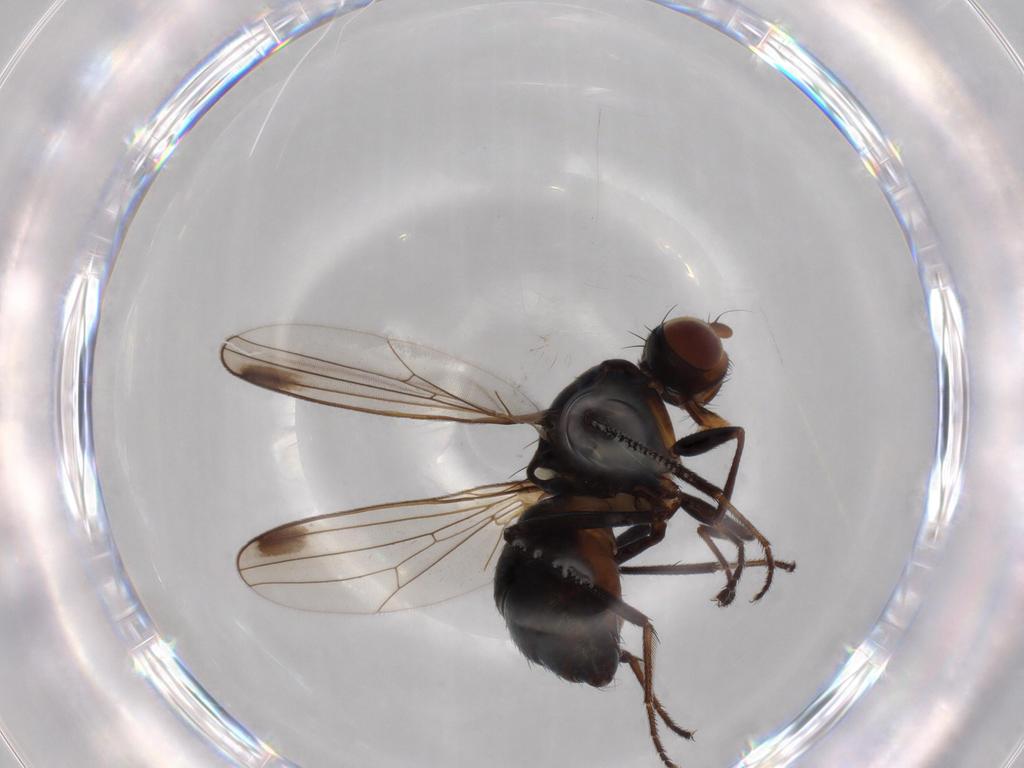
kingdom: Animalia
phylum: Arthropoda
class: Insecta
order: Diptera
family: Sepsidae
